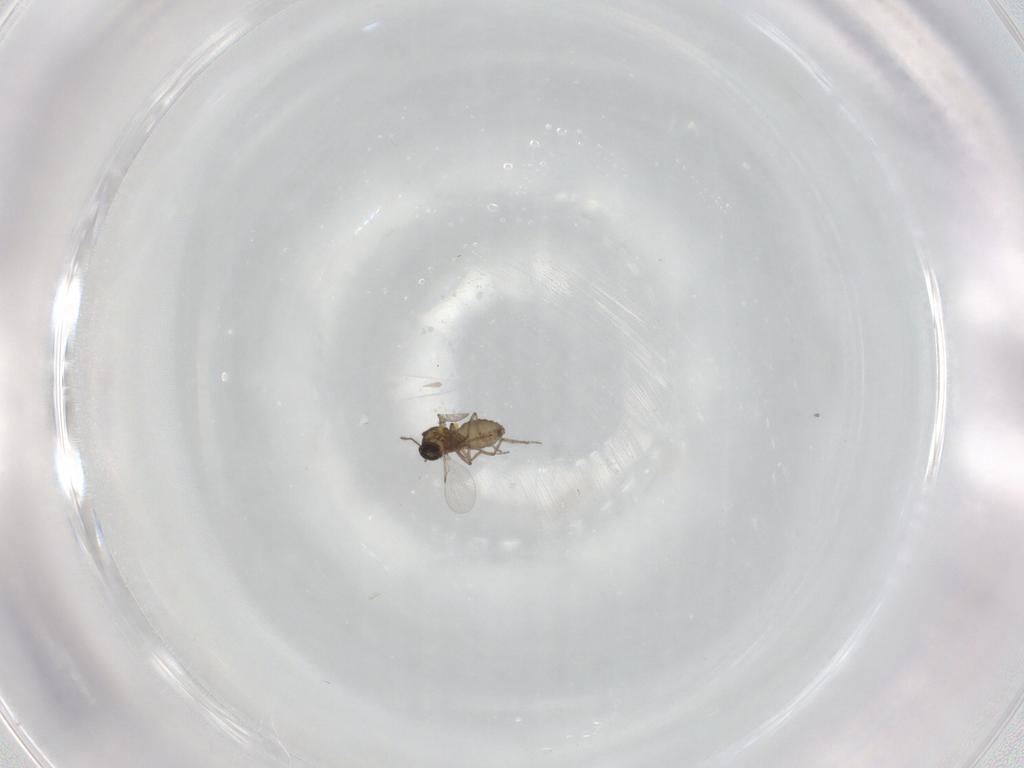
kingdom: Animalia
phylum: Arthropoda
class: Insecta
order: Diptera
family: Ceratopogonidae
